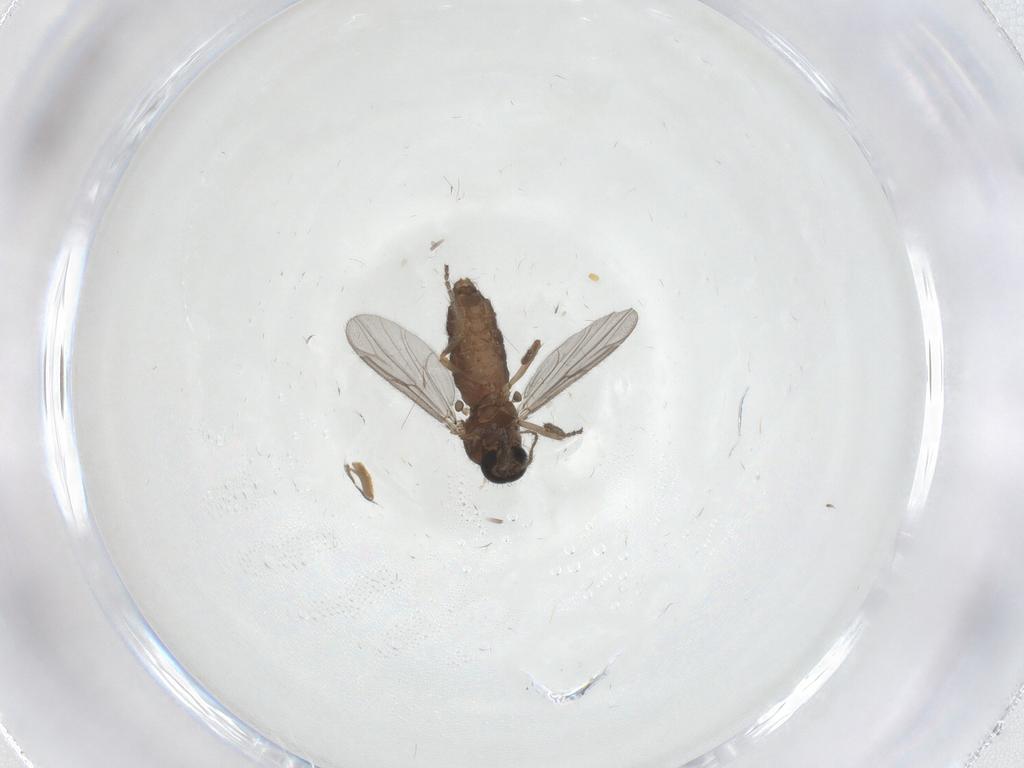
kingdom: Animalia
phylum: Arthropoda
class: Insecta
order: Diptera
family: Ceratopogonidae
